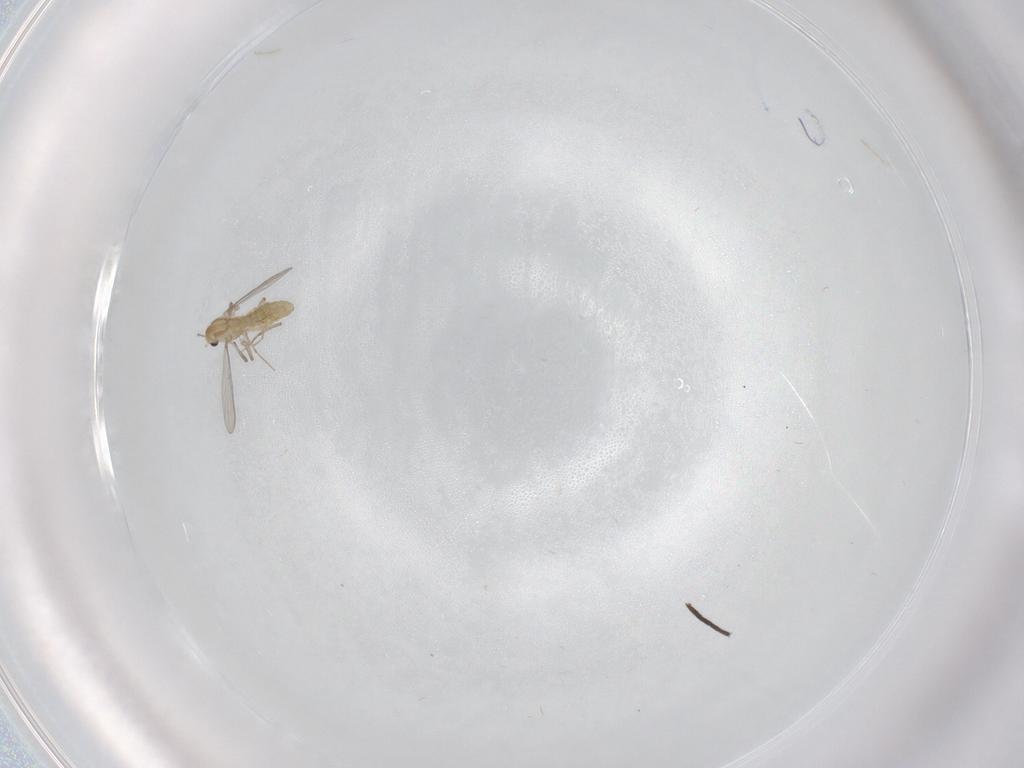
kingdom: Animalia
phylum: Arthropoda
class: Insecta
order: Diptera
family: Chironomidae
